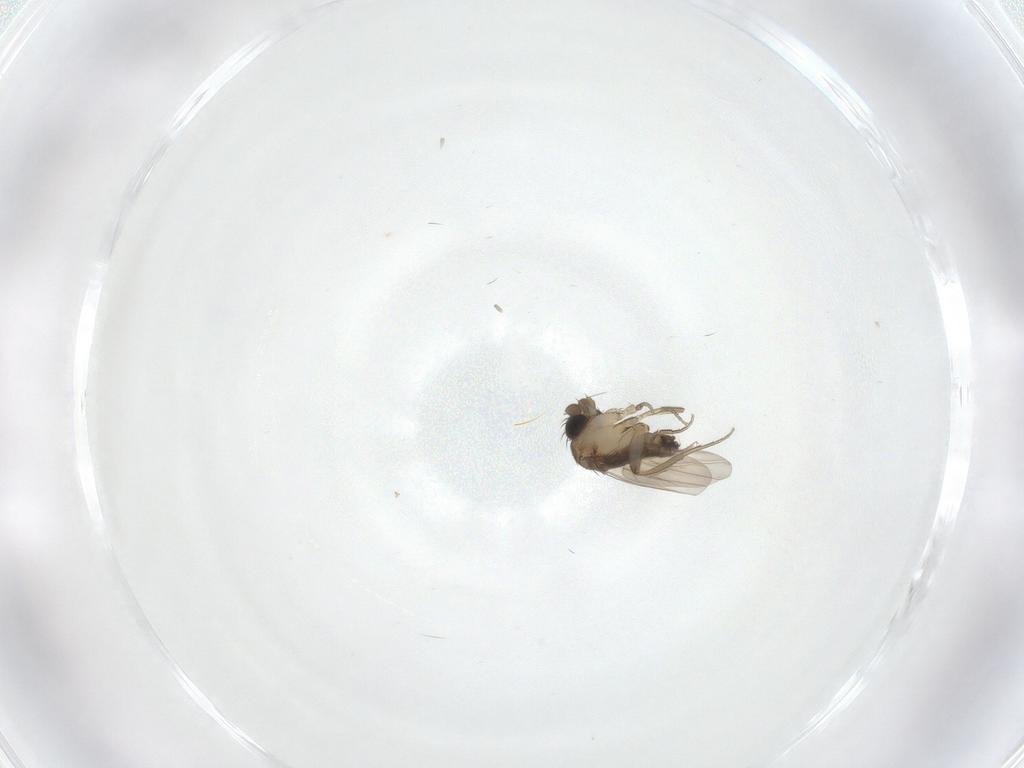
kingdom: Animalia
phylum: Arthropoda
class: Insecta
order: Diptera
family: Phoridae
